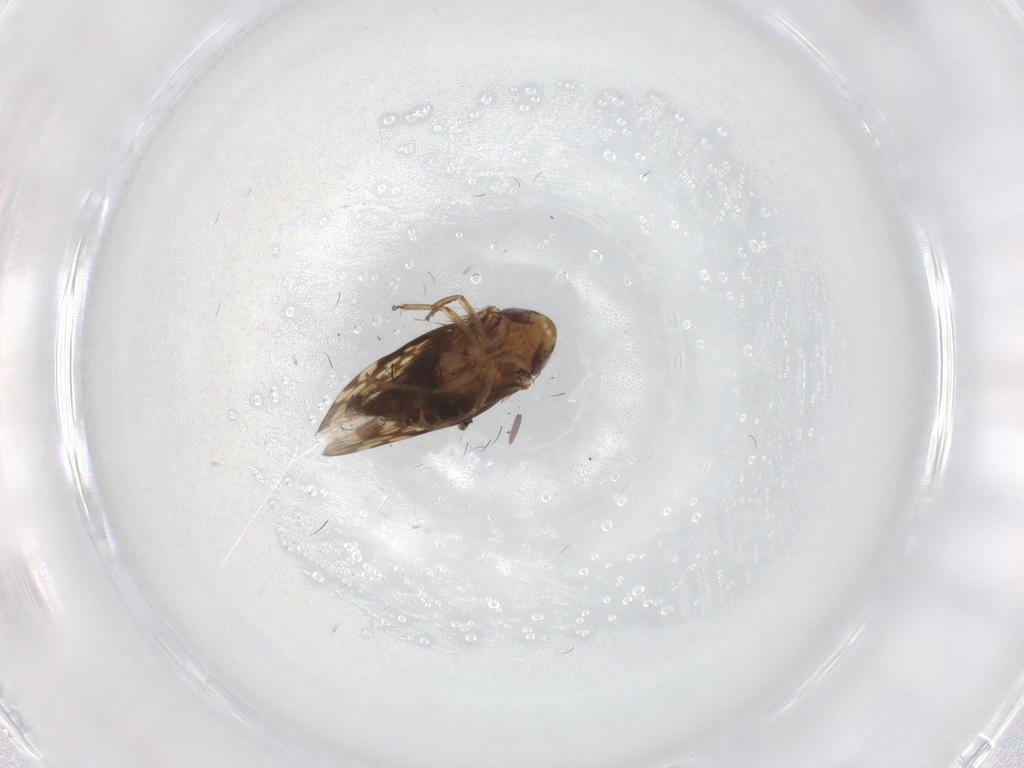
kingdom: Animalia
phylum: Arthropoda
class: Insecta
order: Hemiptera
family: Cicadellidae
